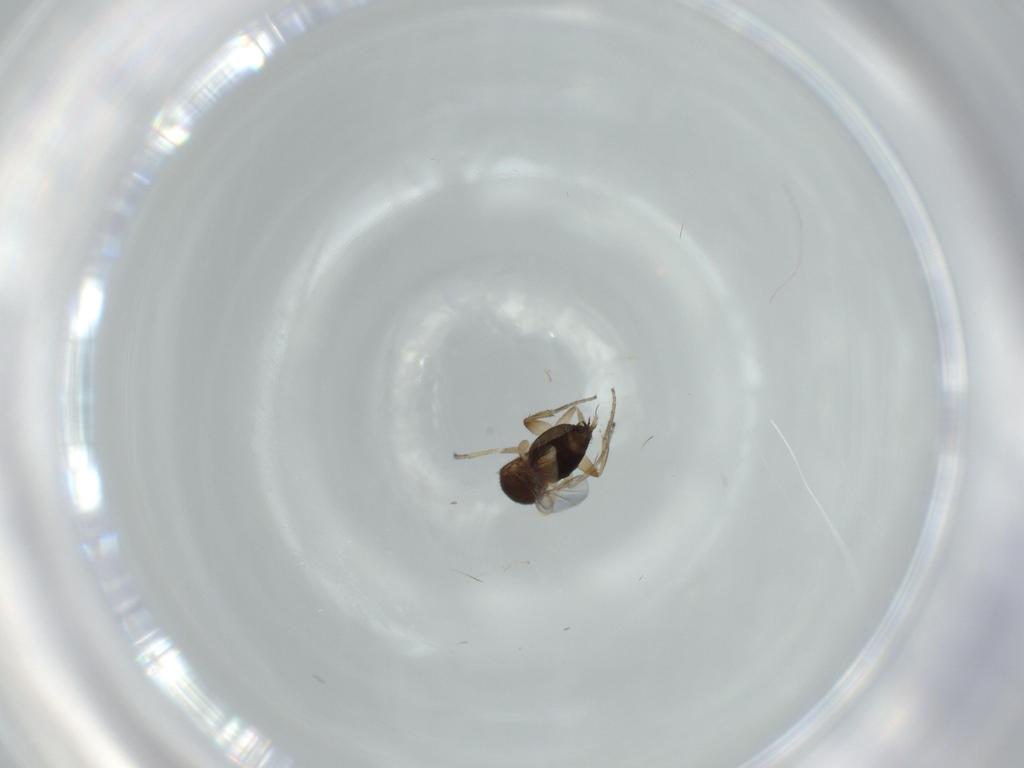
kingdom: Animalia
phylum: Arthropoda
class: Insecta
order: Diptera
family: Phoridae
